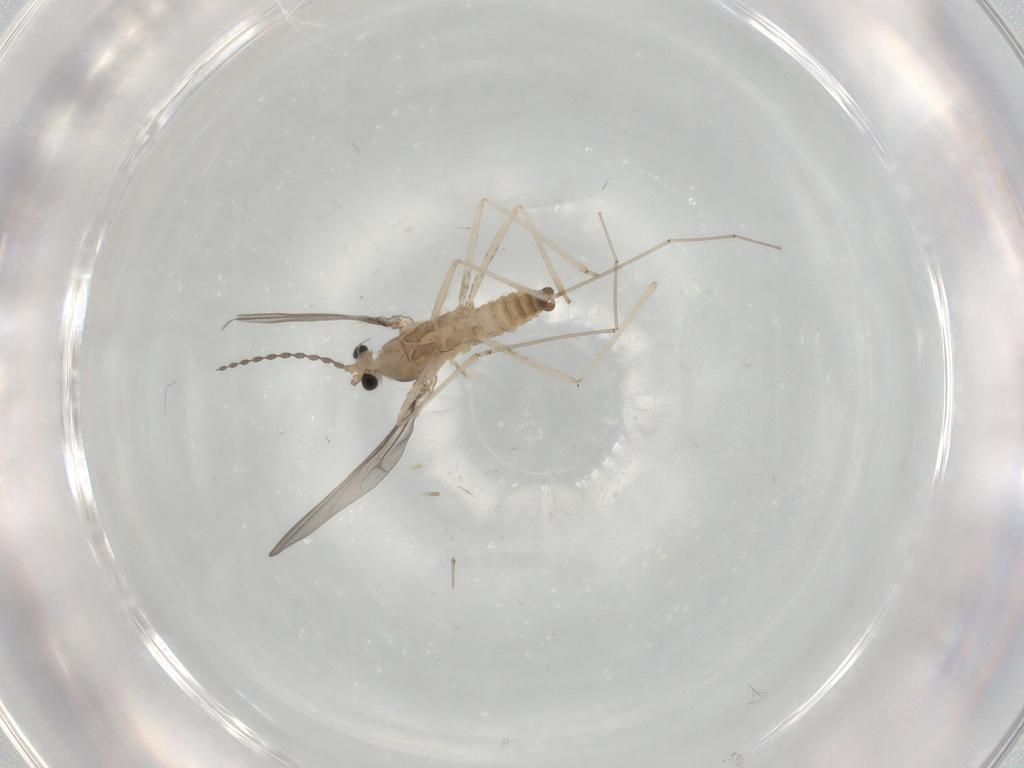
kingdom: Animalia
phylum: Arthropoda
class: Insecta
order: Diptera
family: Cecidomyiidae
